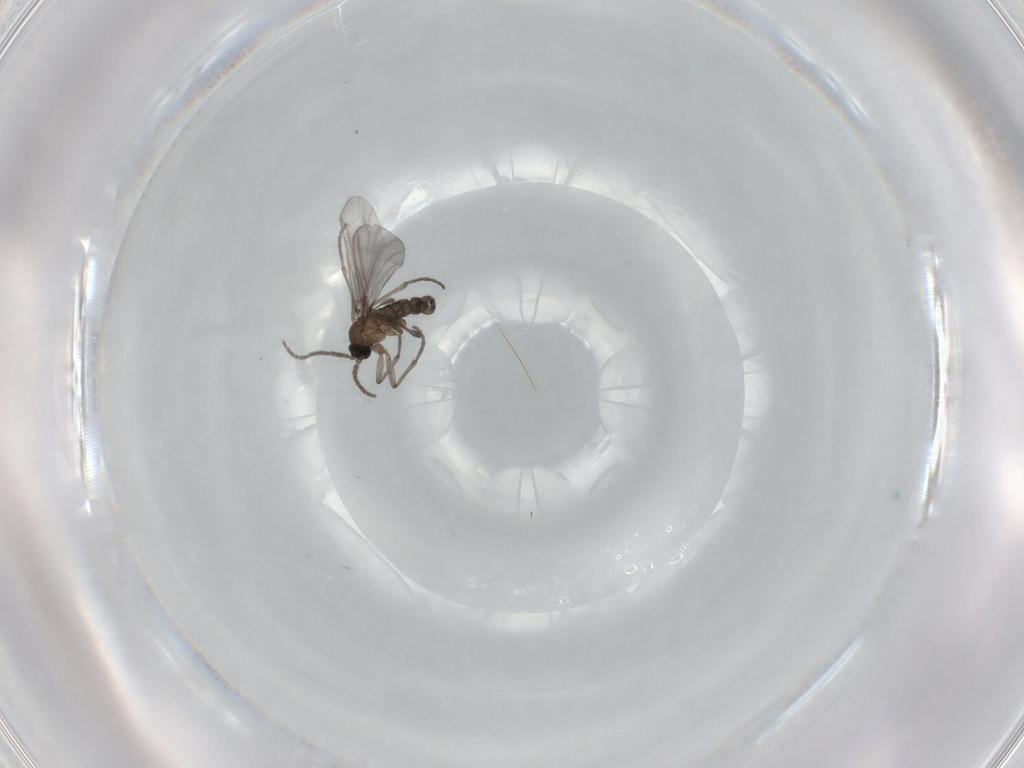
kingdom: Animalia
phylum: Arthropoda
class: Insecta
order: Diptera
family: Sciaridae
